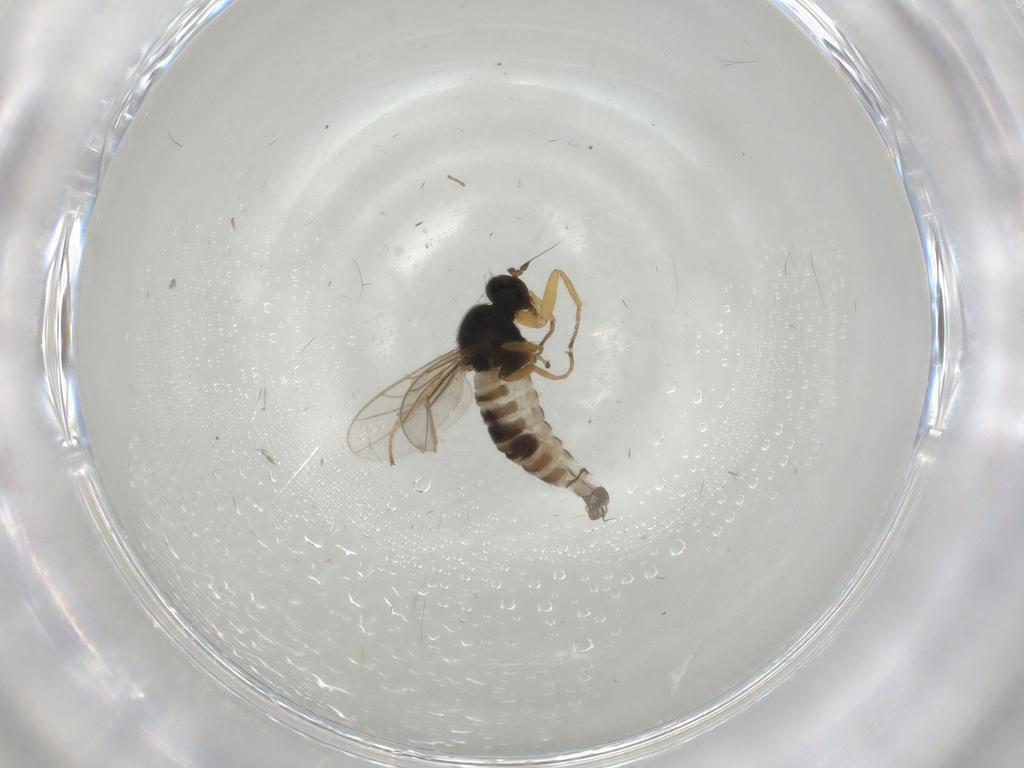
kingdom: Animalia
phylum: Arthropoda
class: Insecta
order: Diptera
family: Hybotidae
